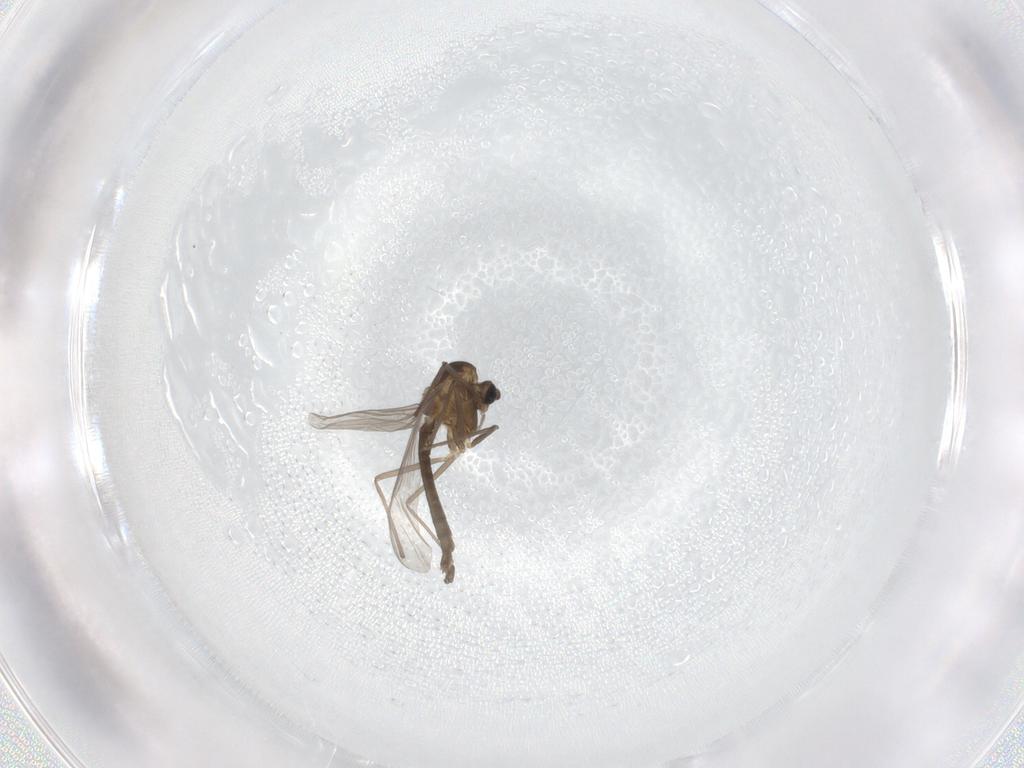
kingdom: Animalia
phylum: Arthropoda
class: Insecta
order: Diptera
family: Chironomidae
